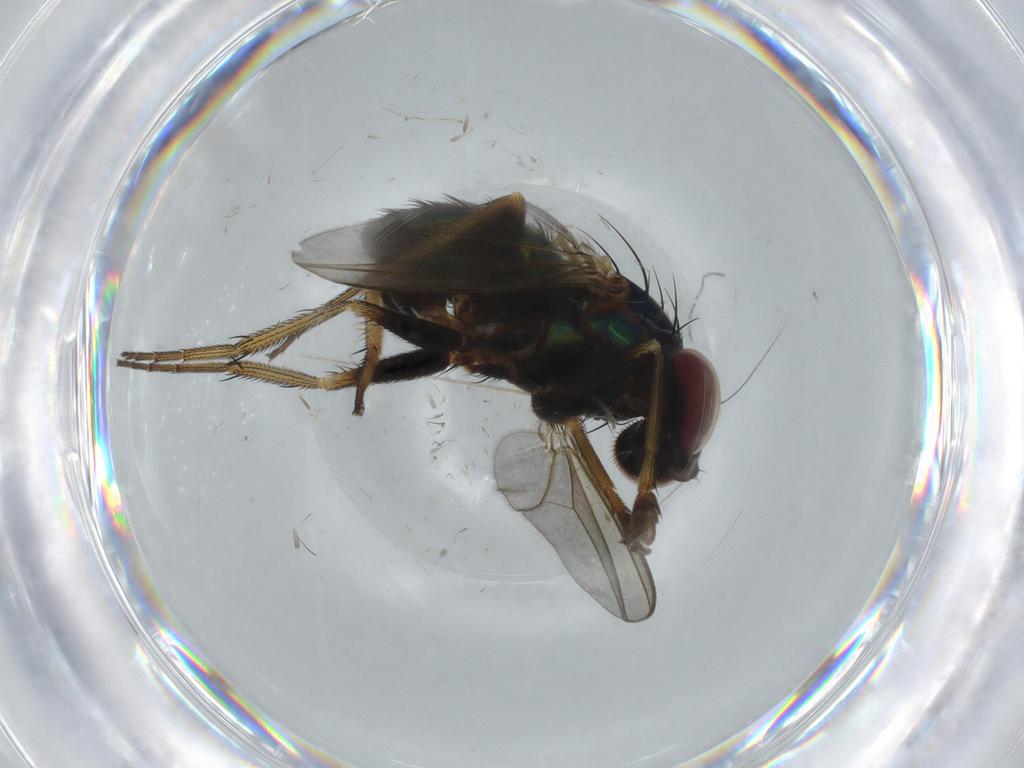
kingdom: Animalia
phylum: Arthropoda
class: Insecta
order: Diptera
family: Dolichopodidae
